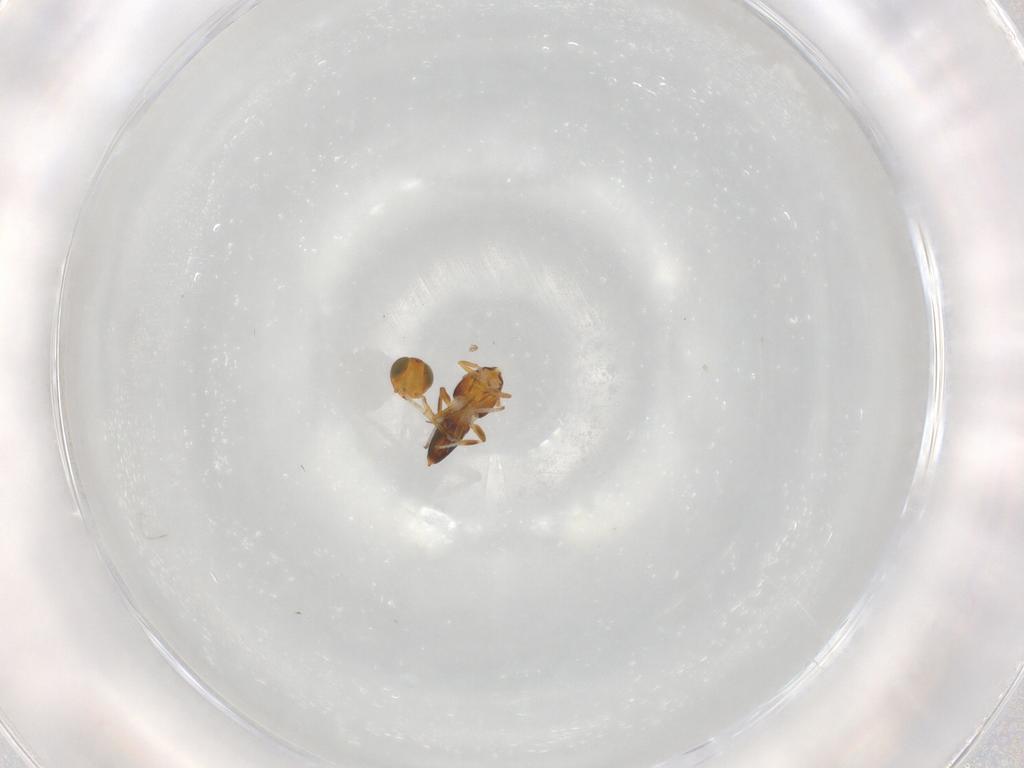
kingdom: Animalia
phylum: Arthropoda
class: Insecta
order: Hymenoptera
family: Encyrtidae
